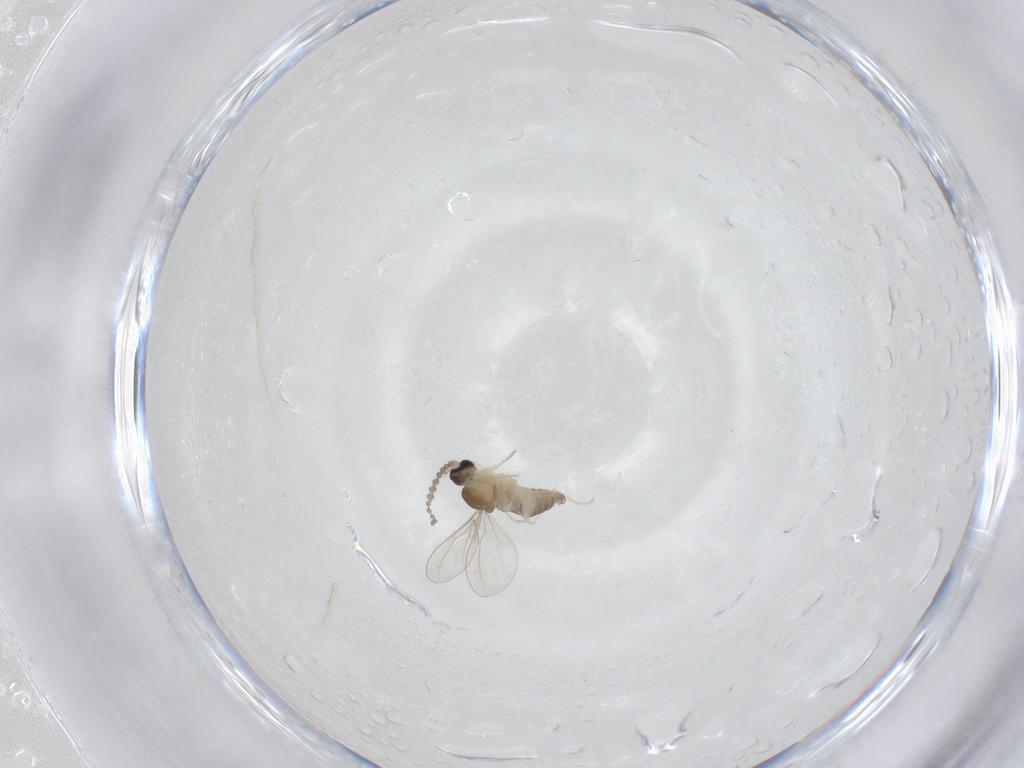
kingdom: Animalia
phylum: Arthropoda
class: Insecta
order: Diptera
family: Cecidomyiidae
